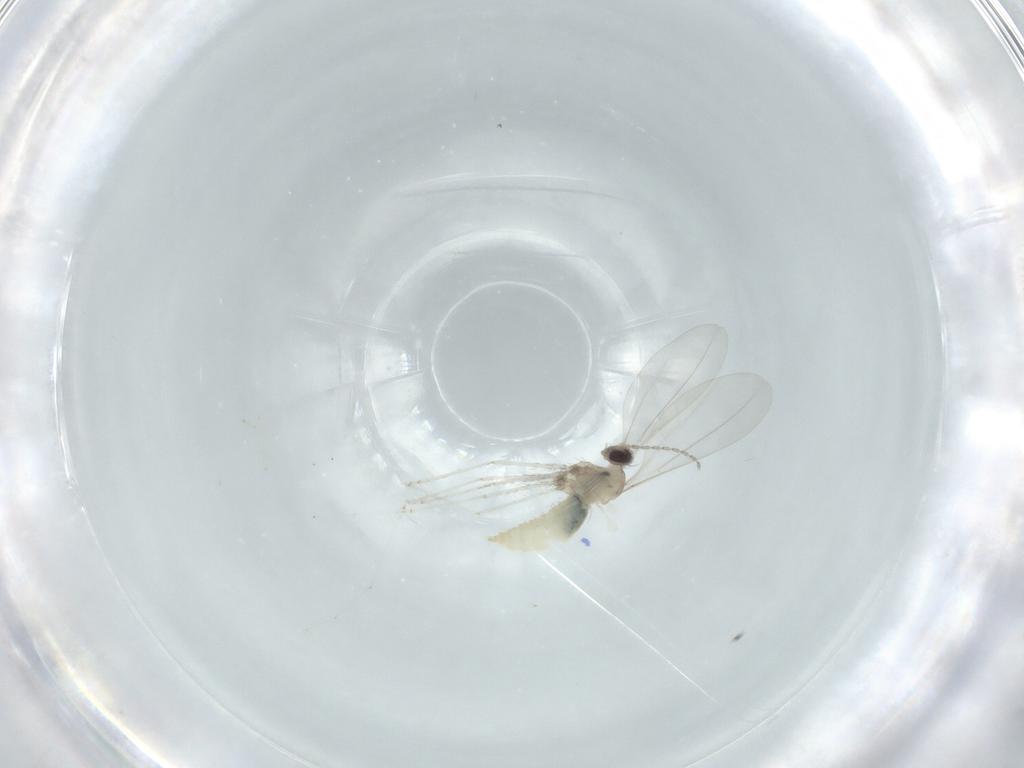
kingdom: Animalia
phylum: Arthropoda
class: Insecta
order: Diptera
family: Cecidomyiidae
